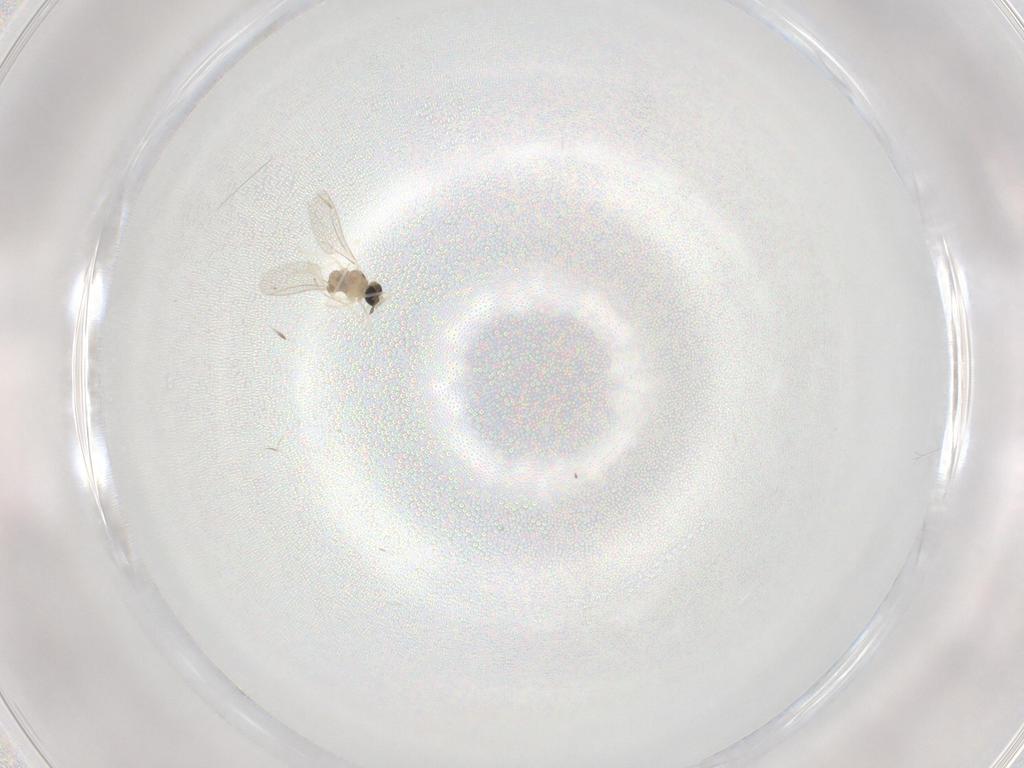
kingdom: Animalia
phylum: Arthropoda
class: Insecta
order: Diptera
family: Cecidomyiidae
